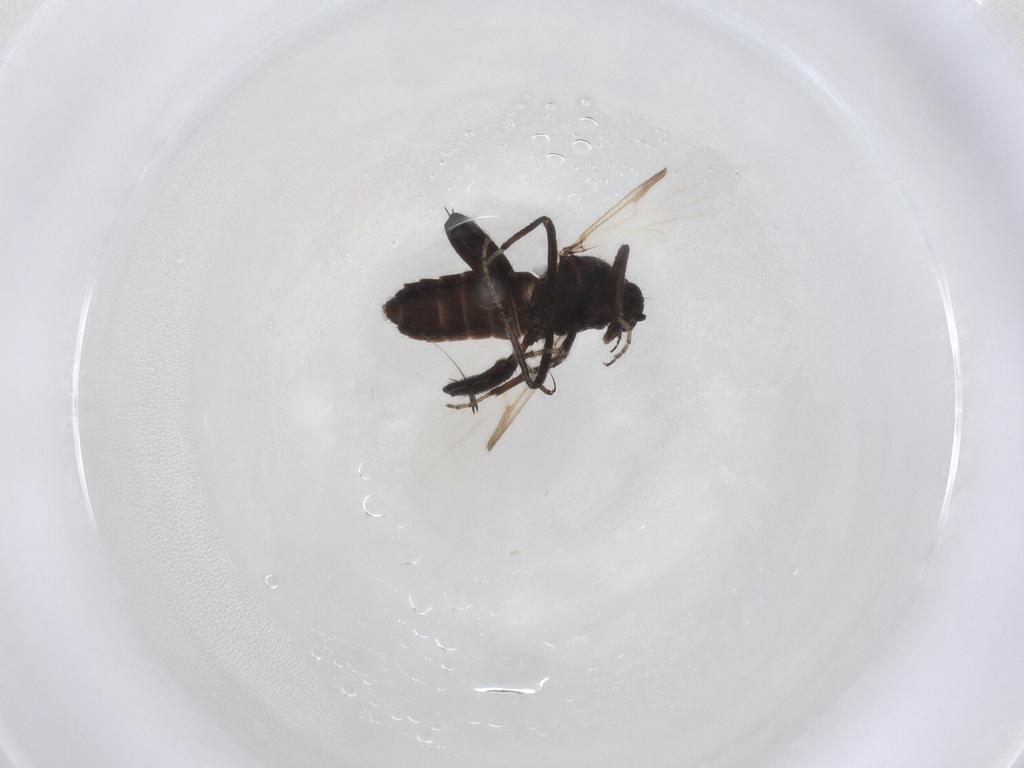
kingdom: Animalia
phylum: Arthropoda
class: Insecta
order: Diptera
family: Ceratopogonidae
